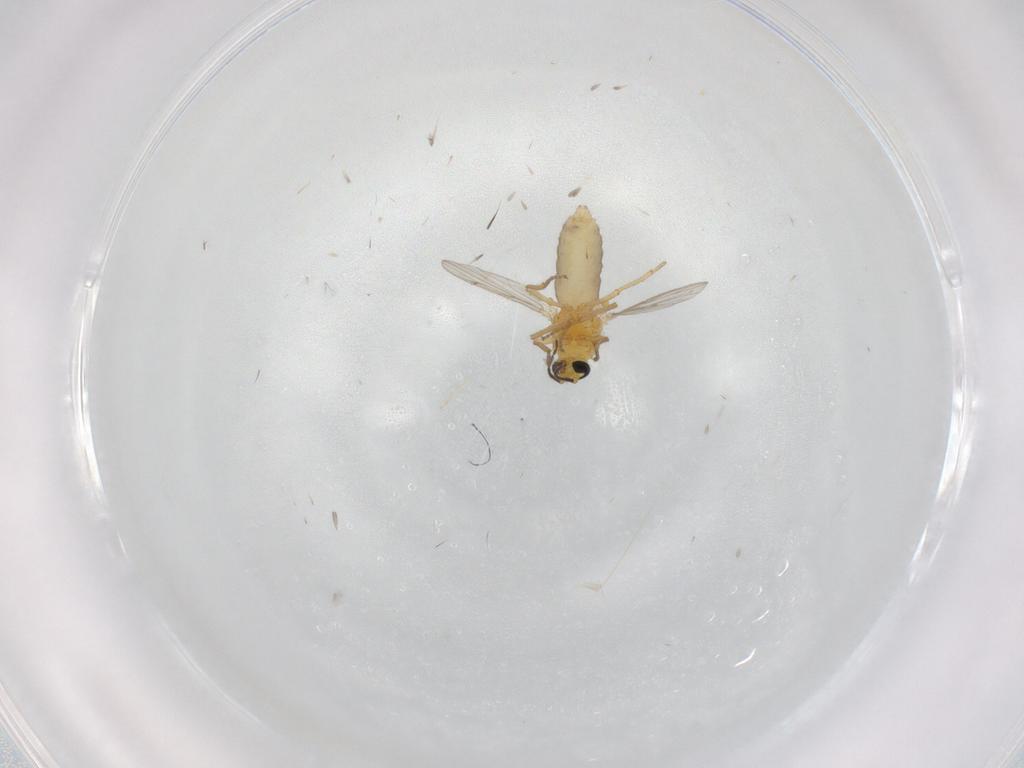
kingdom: Animalia
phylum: Arthropoda
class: Insecta
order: Diptera
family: Ceratopogonidae
